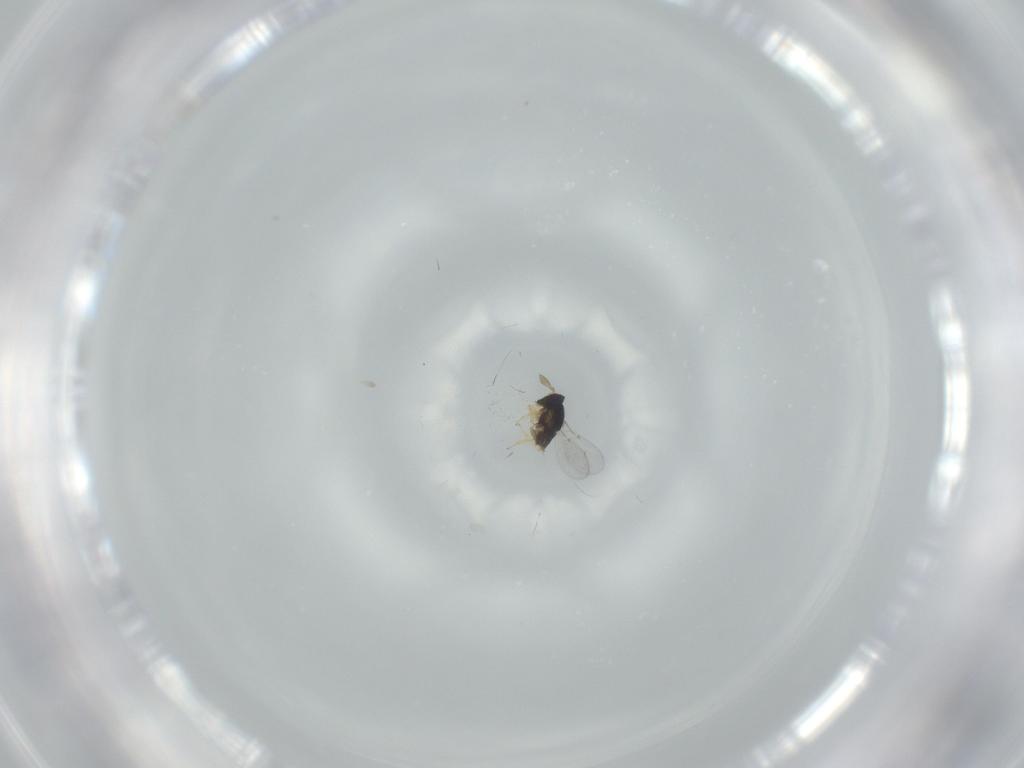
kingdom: Animalia
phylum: Arthropoda
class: Insecta
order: Hymenoptera
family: Encyrtidae
